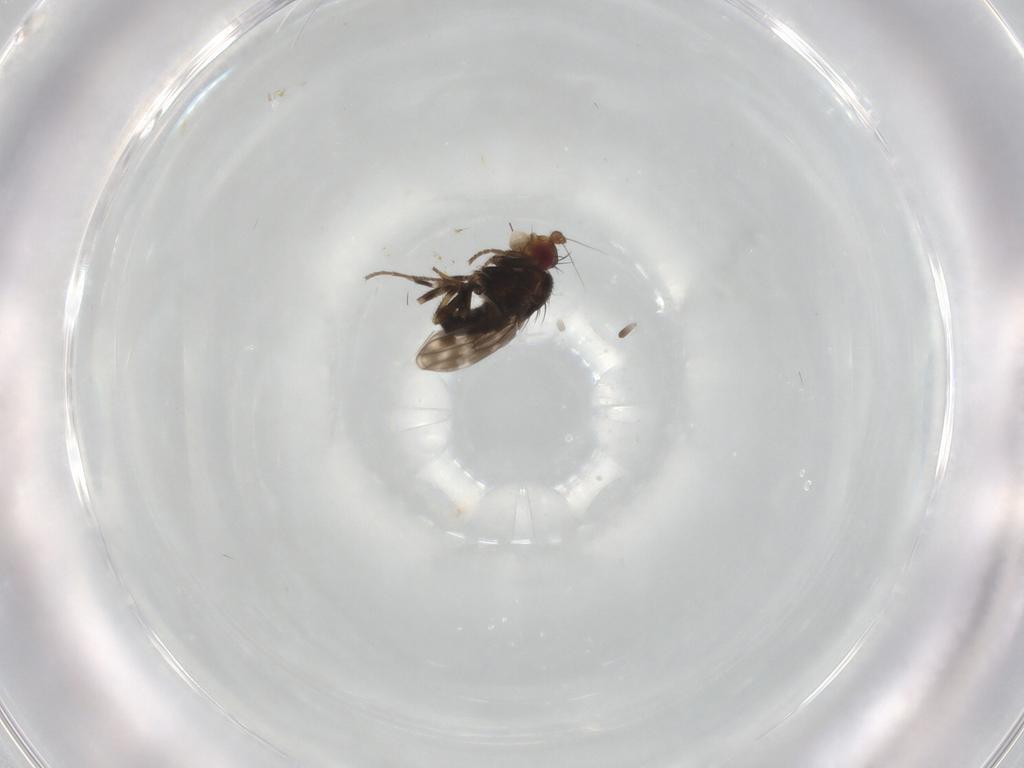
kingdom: Animalia
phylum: Arthropoda
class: Insecta
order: Diptera
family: Sphaeroceridae
